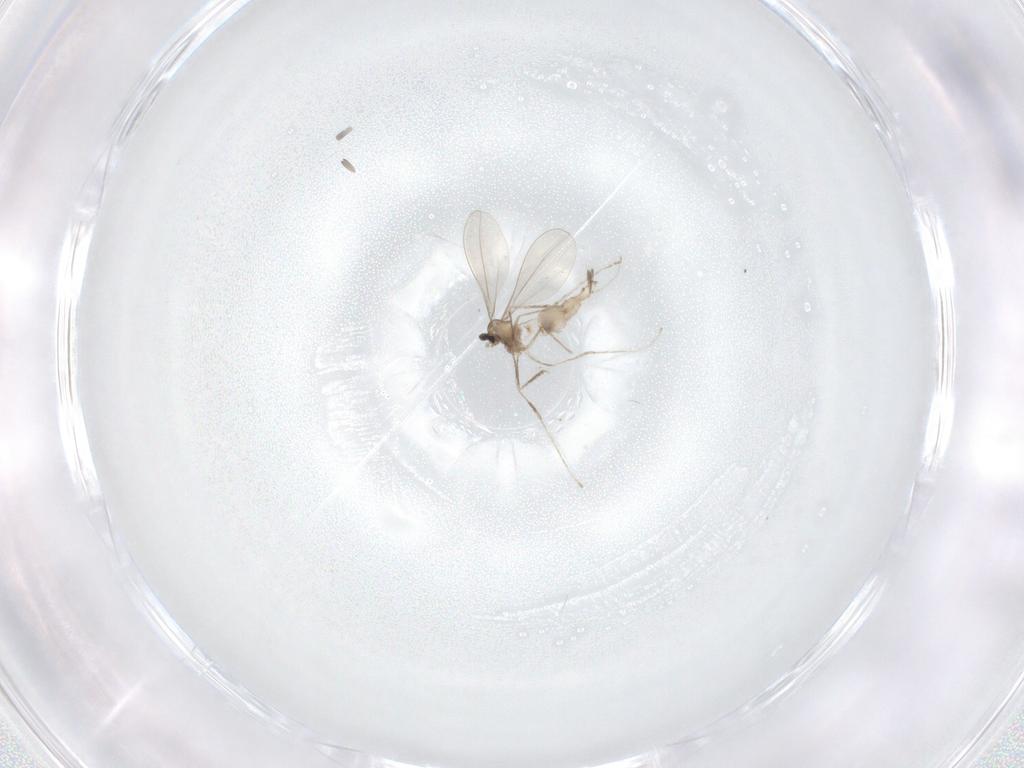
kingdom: Animalia
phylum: Arthropoda
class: Insecta
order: Diptera
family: Cecidomyiidae
